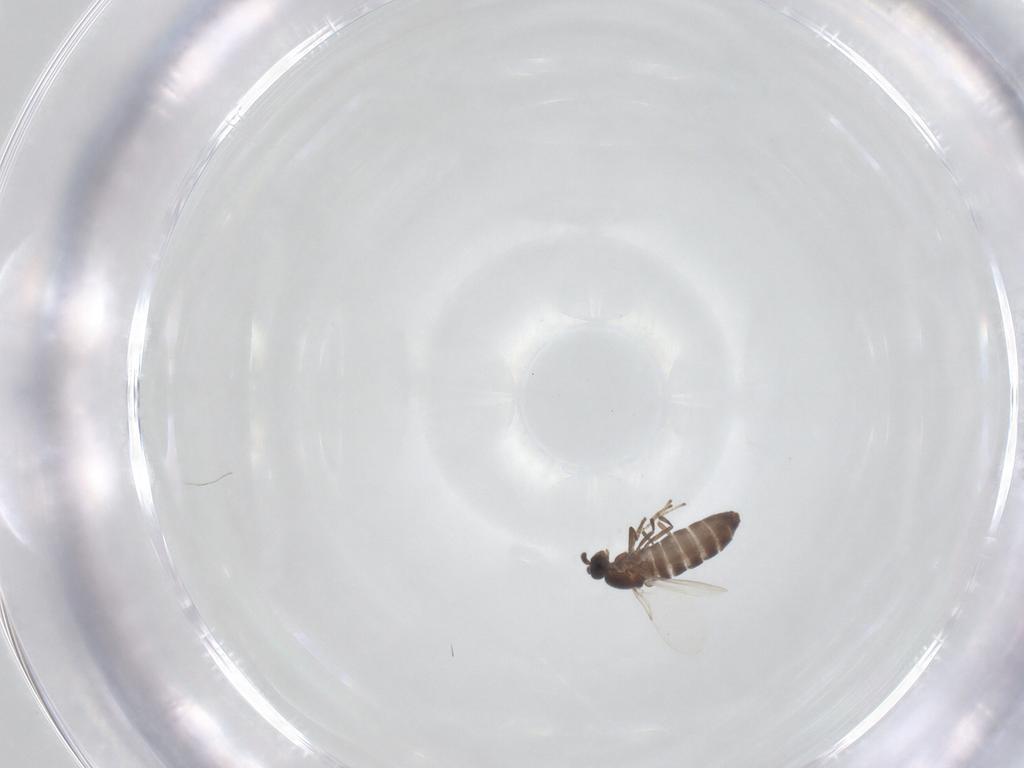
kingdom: Animalia
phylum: Arthropoda
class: Insecta
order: Diptera
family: Scatopsidae
